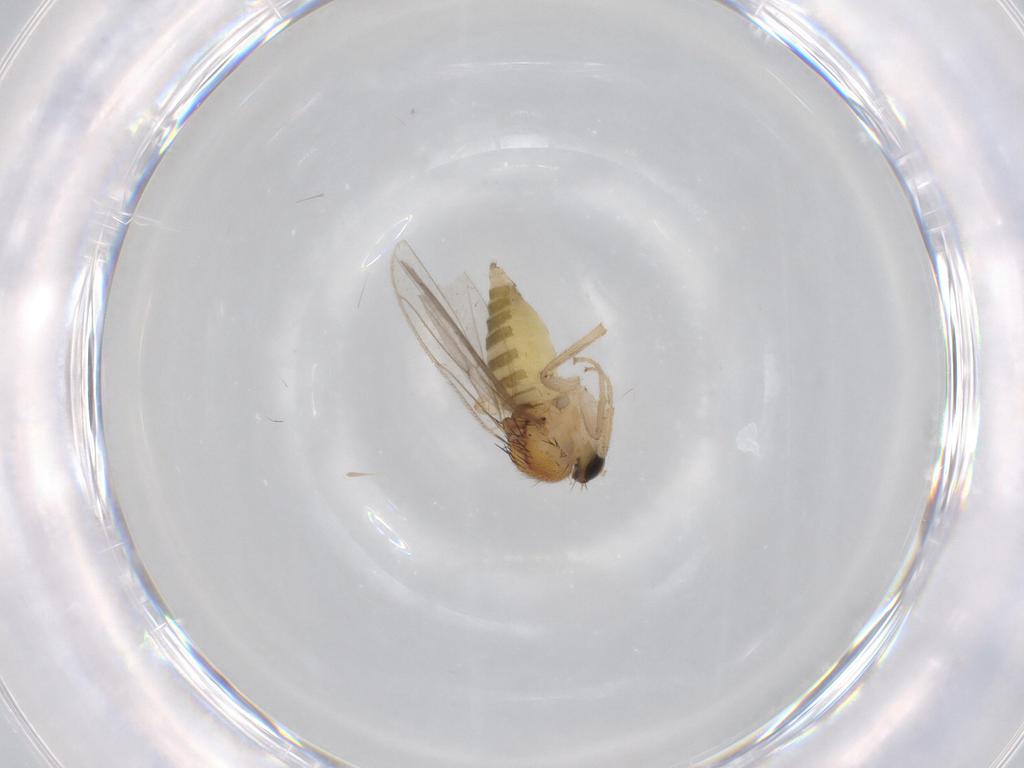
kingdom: Animalia
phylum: Arthropoda
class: Insecta
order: Diptera
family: Hybotidae
